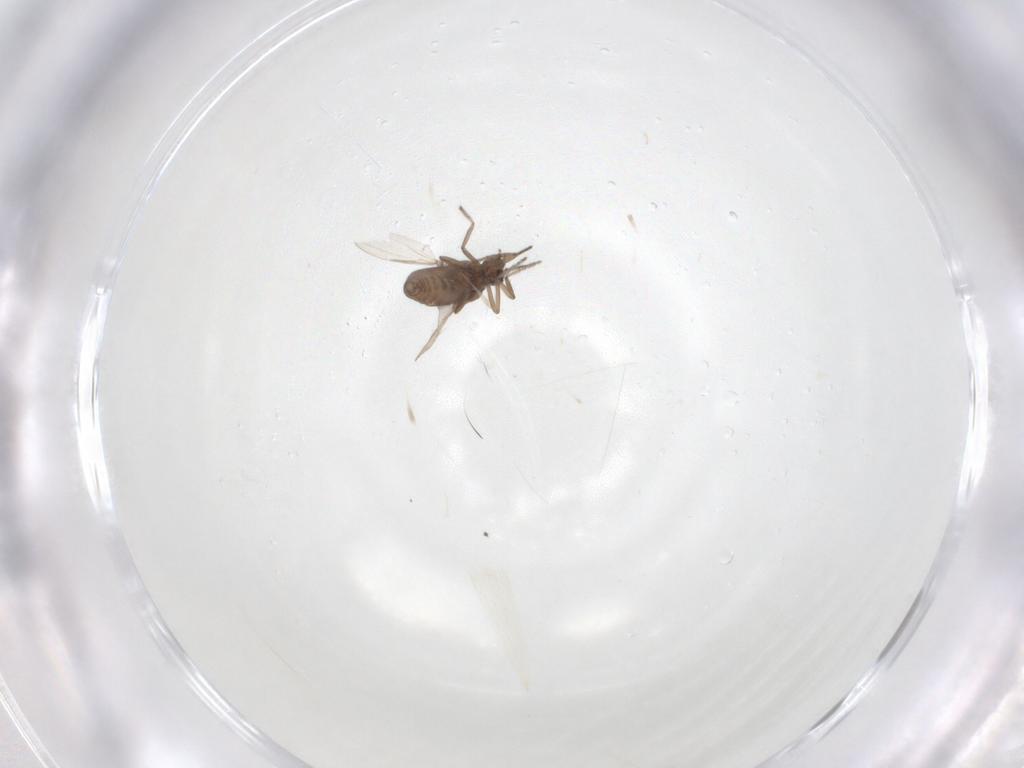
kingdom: Animalia
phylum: Arthropoda
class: Insecta
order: Diptera
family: Ceratopogonidae
